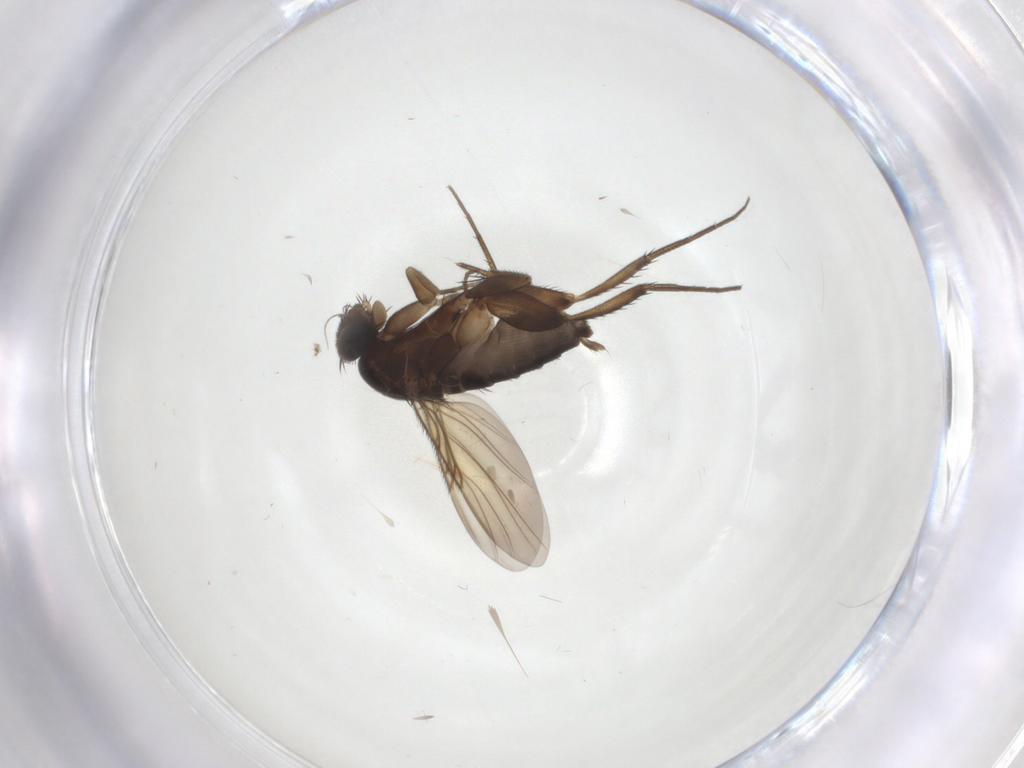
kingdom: Animalia
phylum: Arthropoda
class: Insecta
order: Diptera
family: Phoridae
